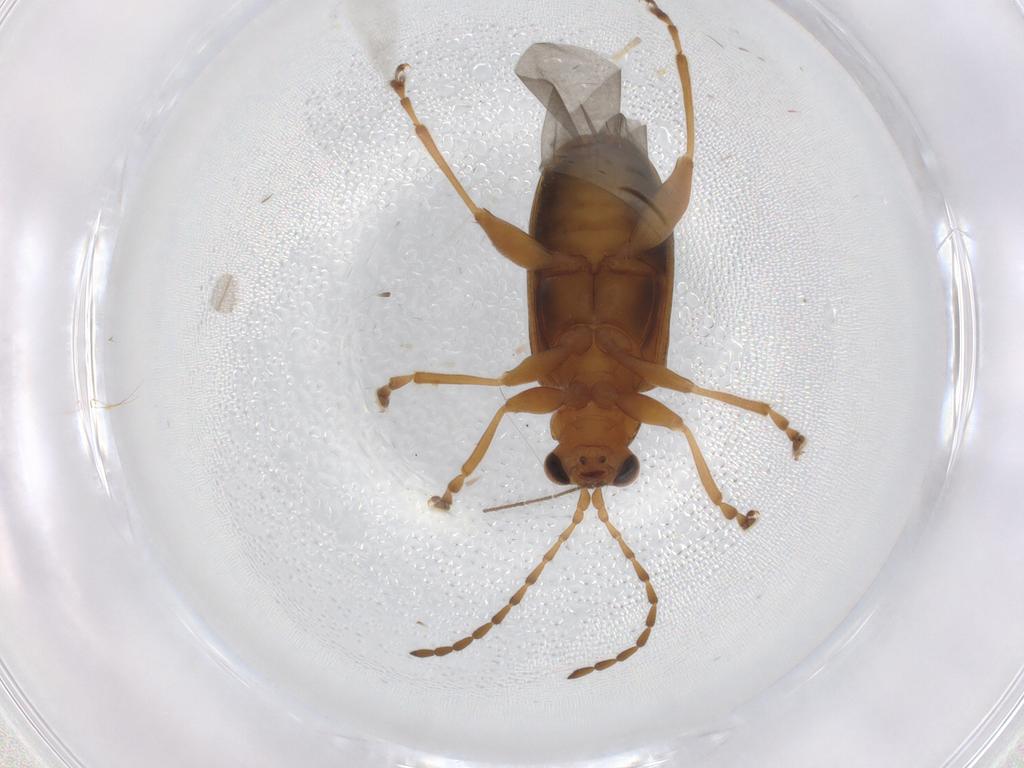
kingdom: Animalia
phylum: Arthropoda
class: Insecta
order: Coleoptera
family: Chrysomelidae
